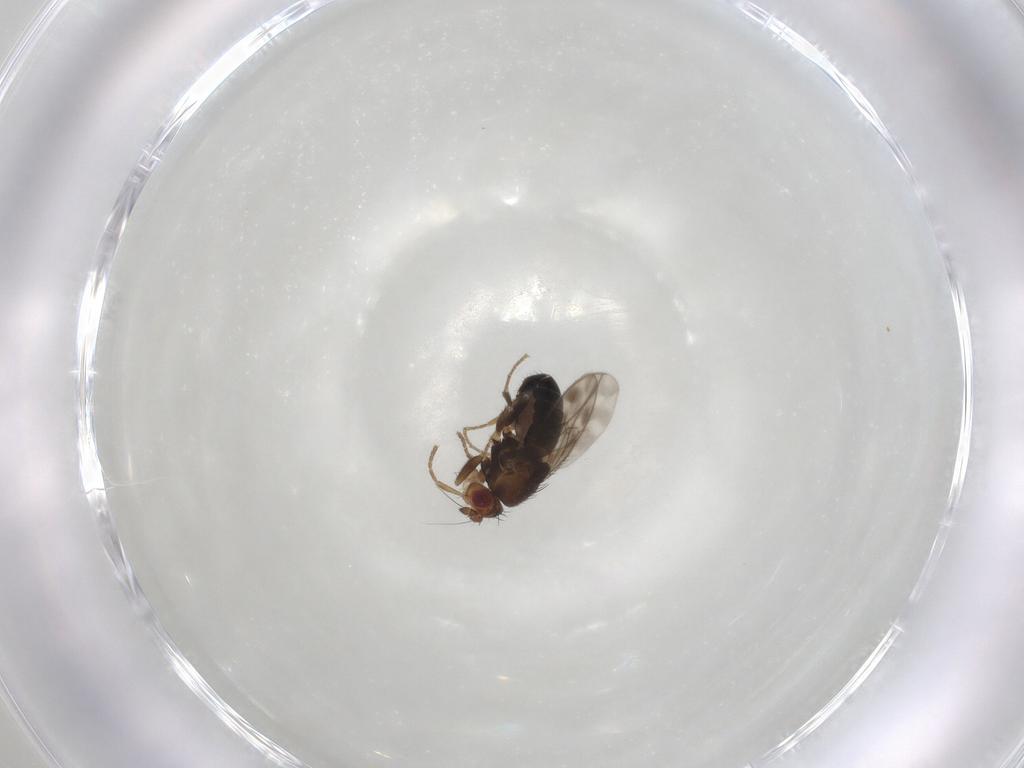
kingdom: Animalia
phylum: Arthropoda
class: Insecta
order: Diptera
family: Sphaeroceridae
